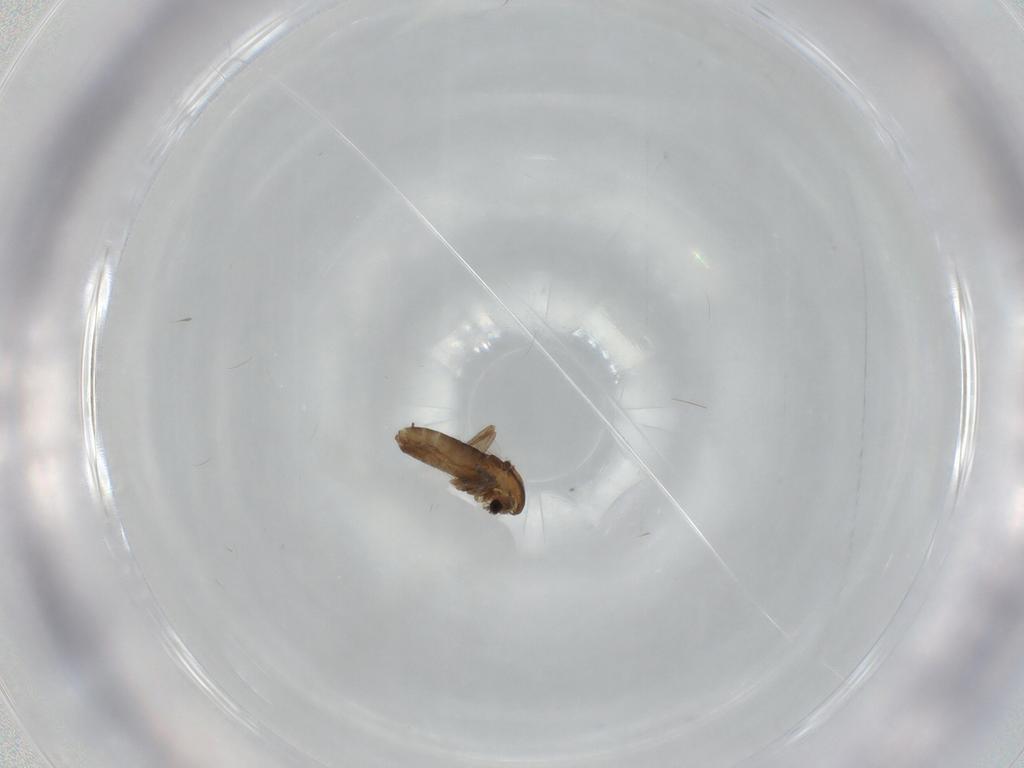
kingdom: Animalia
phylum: Arthropoda
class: Insecta
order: Diptera
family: Chironomidae
